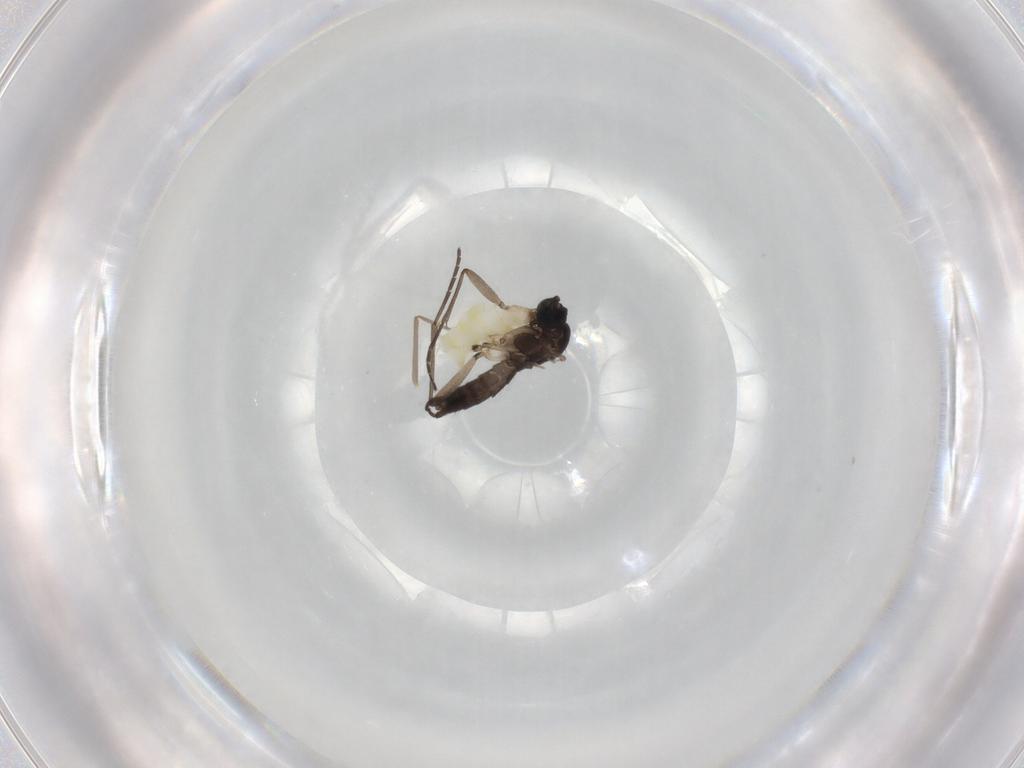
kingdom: Animalia
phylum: Arthropoda
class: Insecta
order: Diptera
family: Sciaridae
